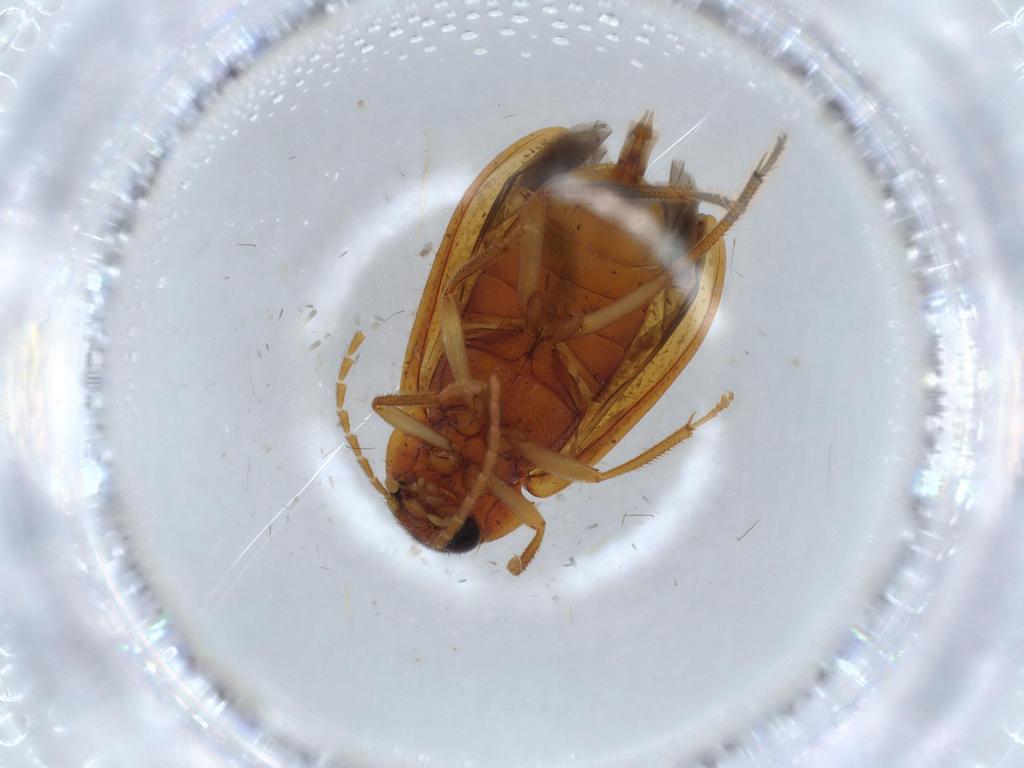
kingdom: Animalia
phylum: Arthropoda
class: Insecta
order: Coleoptera
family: Ptilodactylidae
